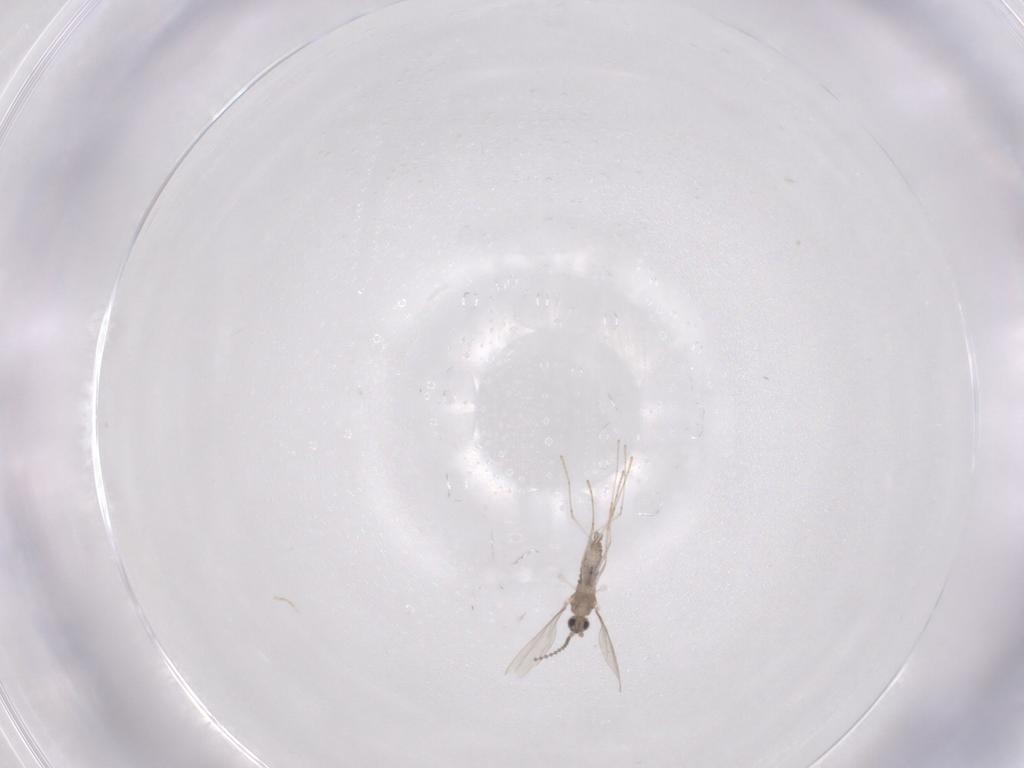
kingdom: Animalia
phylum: Arthropoda
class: Insecta
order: Diptera
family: Cecidomyiidae
